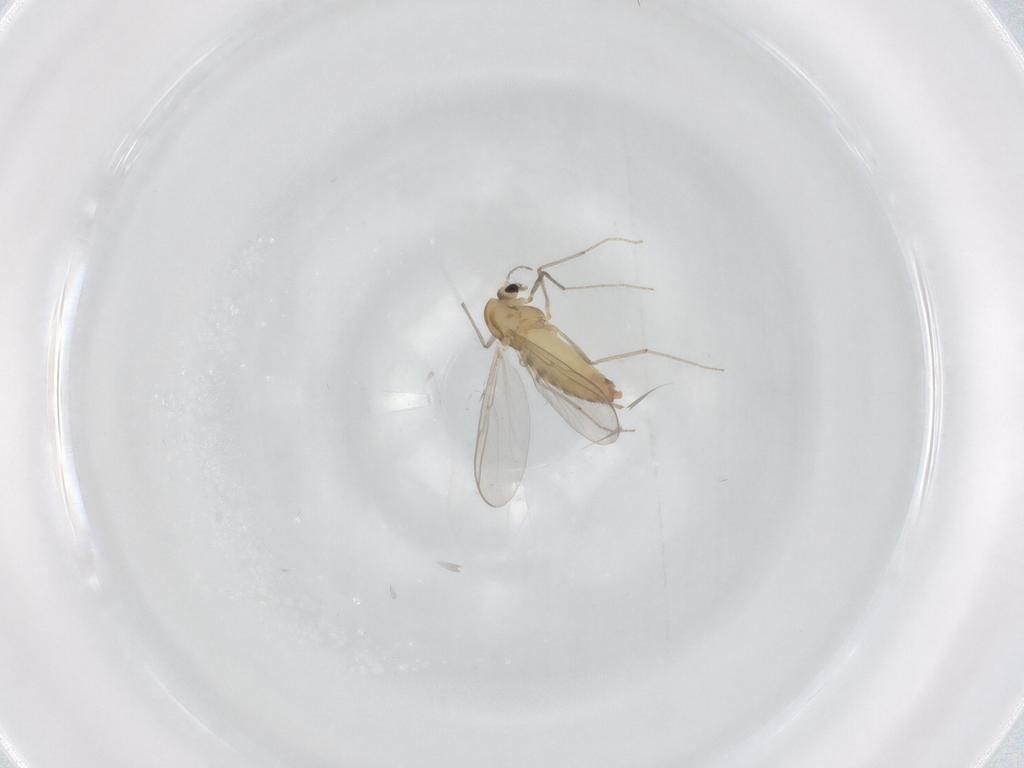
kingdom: Animalia
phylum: Arthropoda
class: Insecta
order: Diptera
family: Chironomidae
